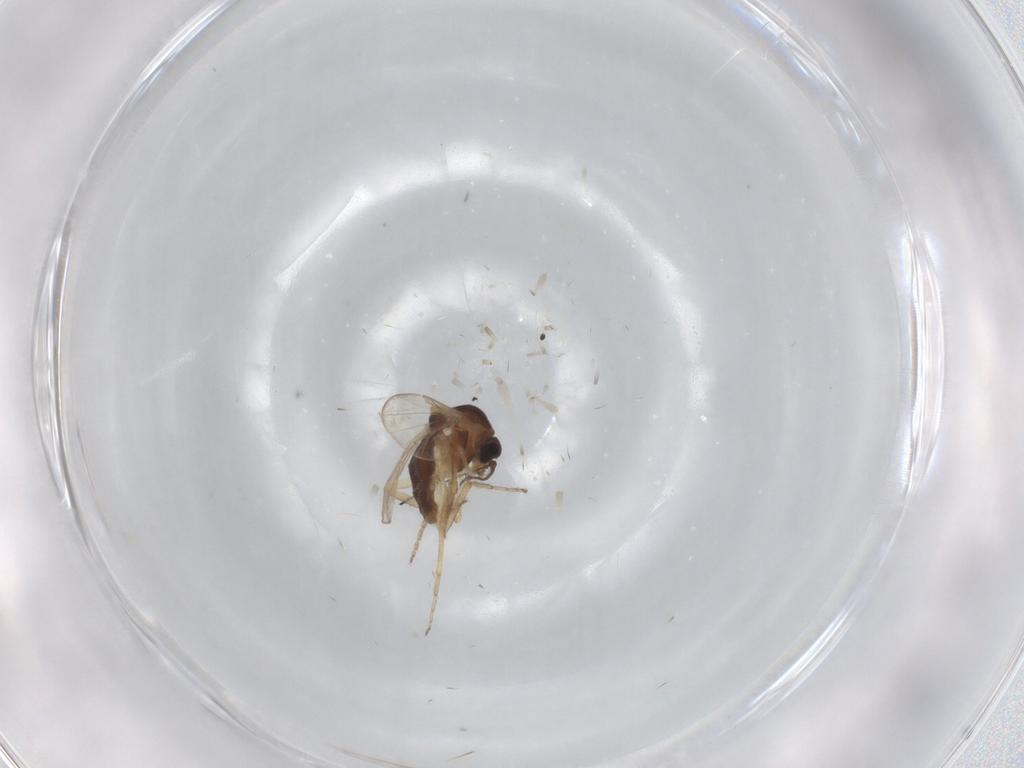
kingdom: Animalia
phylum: Arthropoda
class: Insecta
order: Diptera
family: Ceratopogonidae
